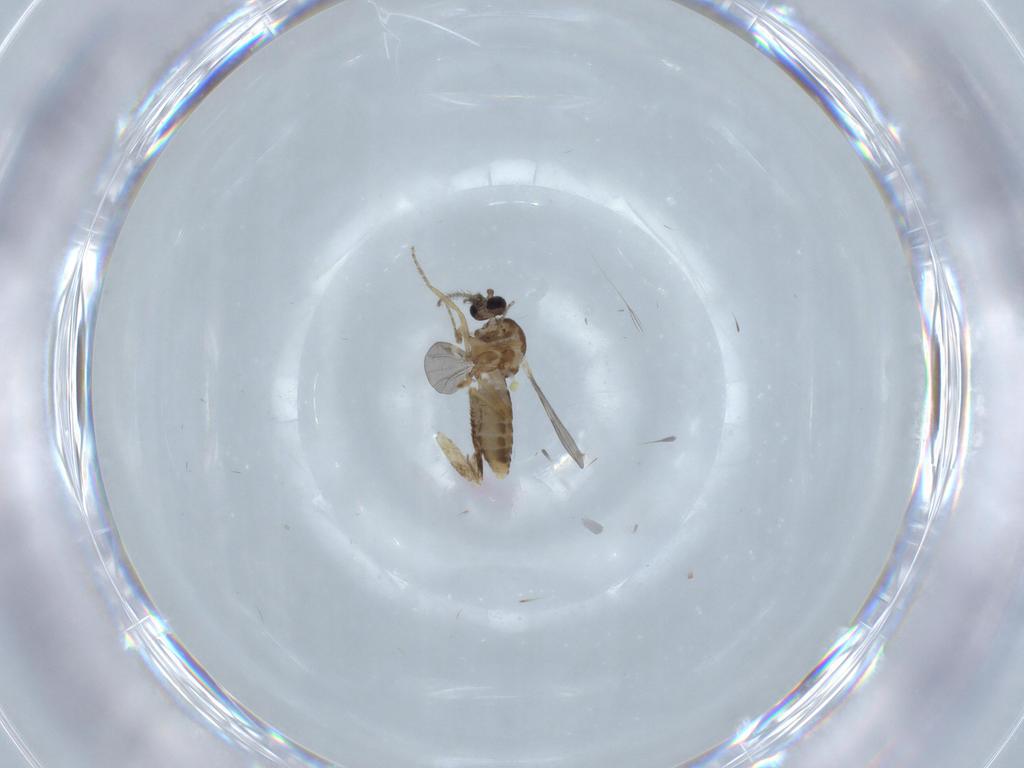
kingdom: Animalia
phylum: Arthropoda
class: Insecta
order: Diptera
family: Ceratopogonidae
